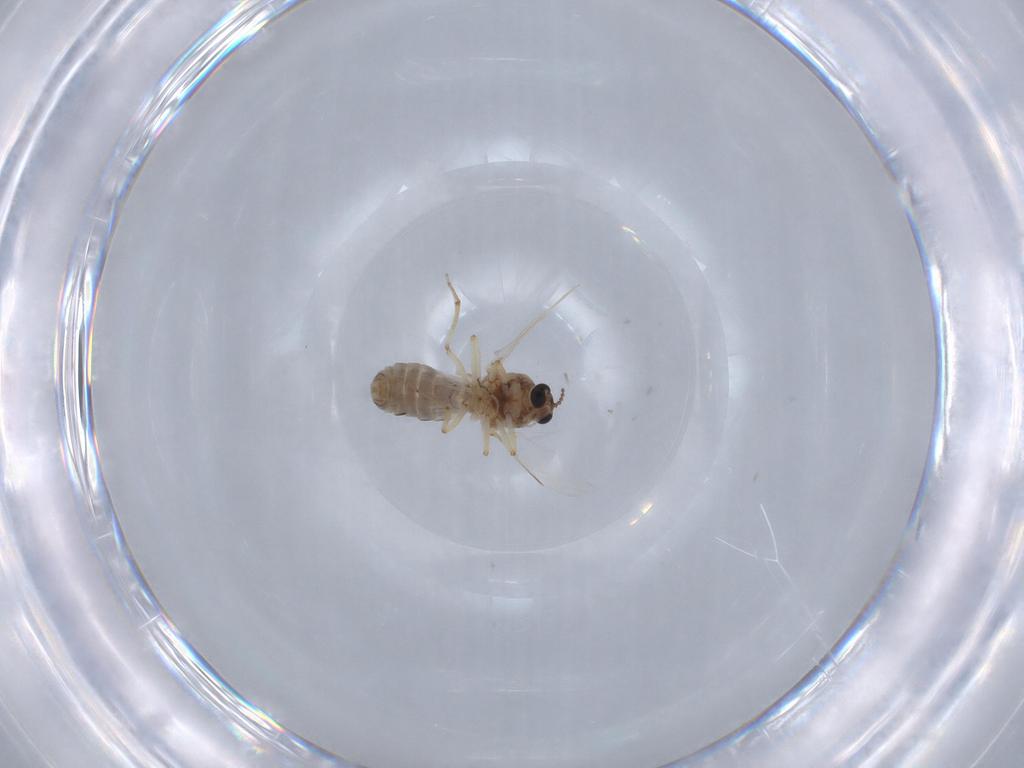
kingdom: Animalia
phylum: Arthropoda
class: Insecta
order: Diptera
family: Ceratopogonidae
